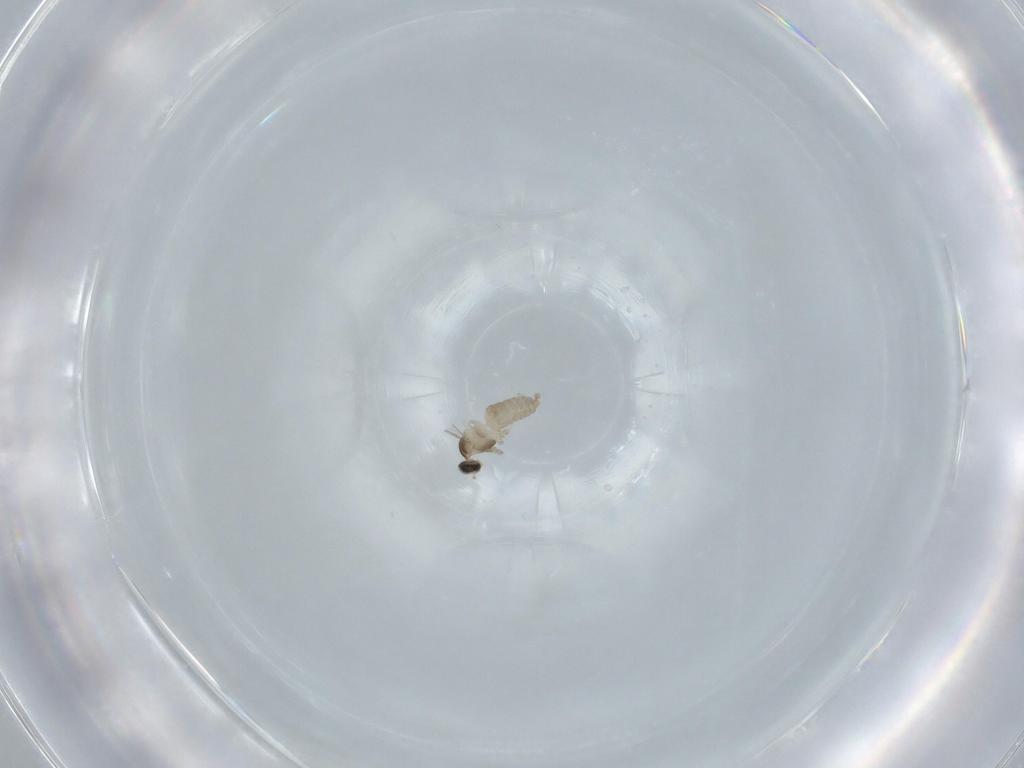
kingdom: Animalia
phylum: Arthropoda
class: Insecta
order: Diptera
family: Cecidomyiidae
